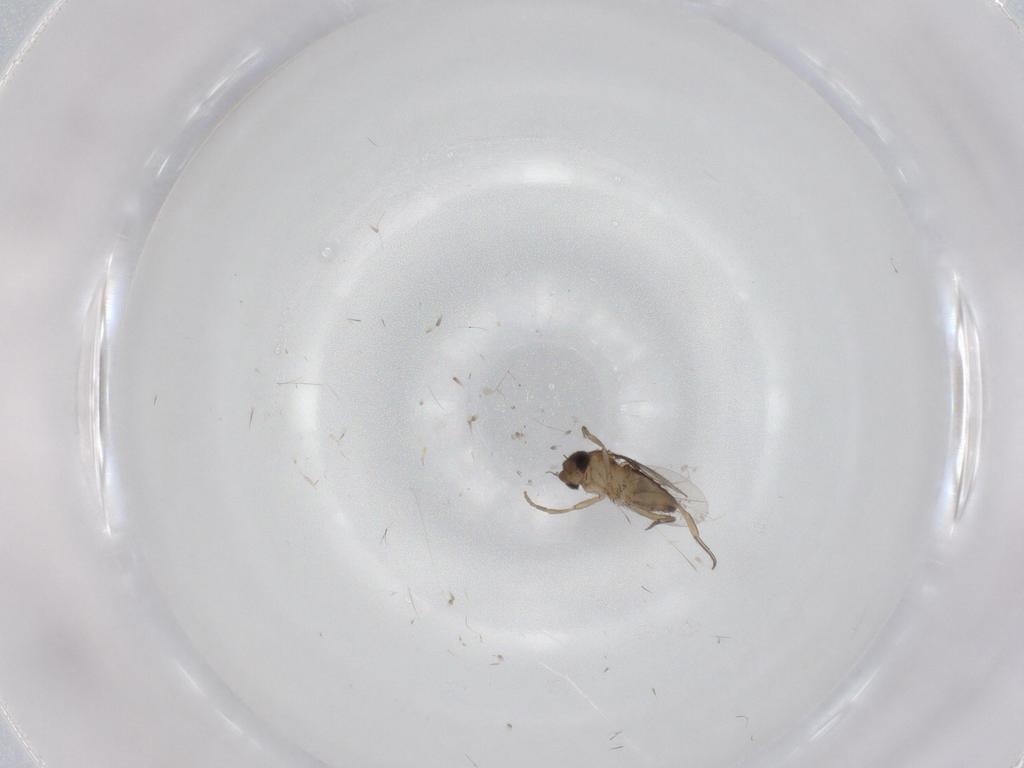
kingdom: Animalia
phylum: Arthropoda
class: Insecta
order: Diptera
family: Phoridae
